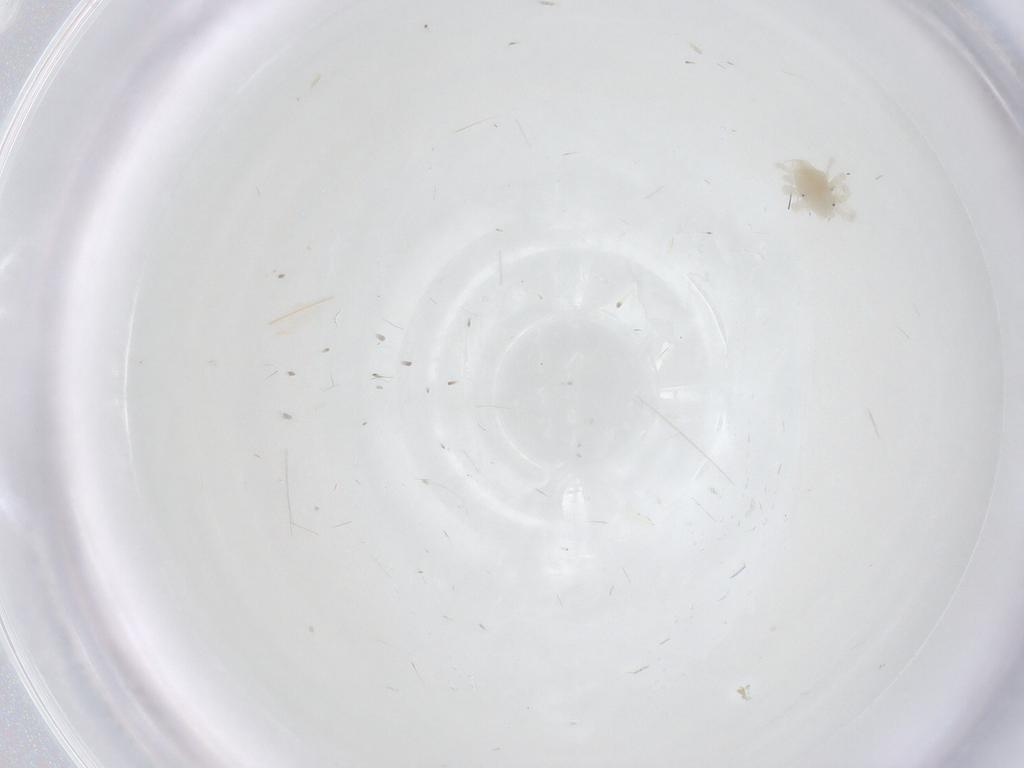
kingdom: Animalia
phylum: Arthropoda
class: Arachnida
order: Trombidiformes
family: Anystidae
